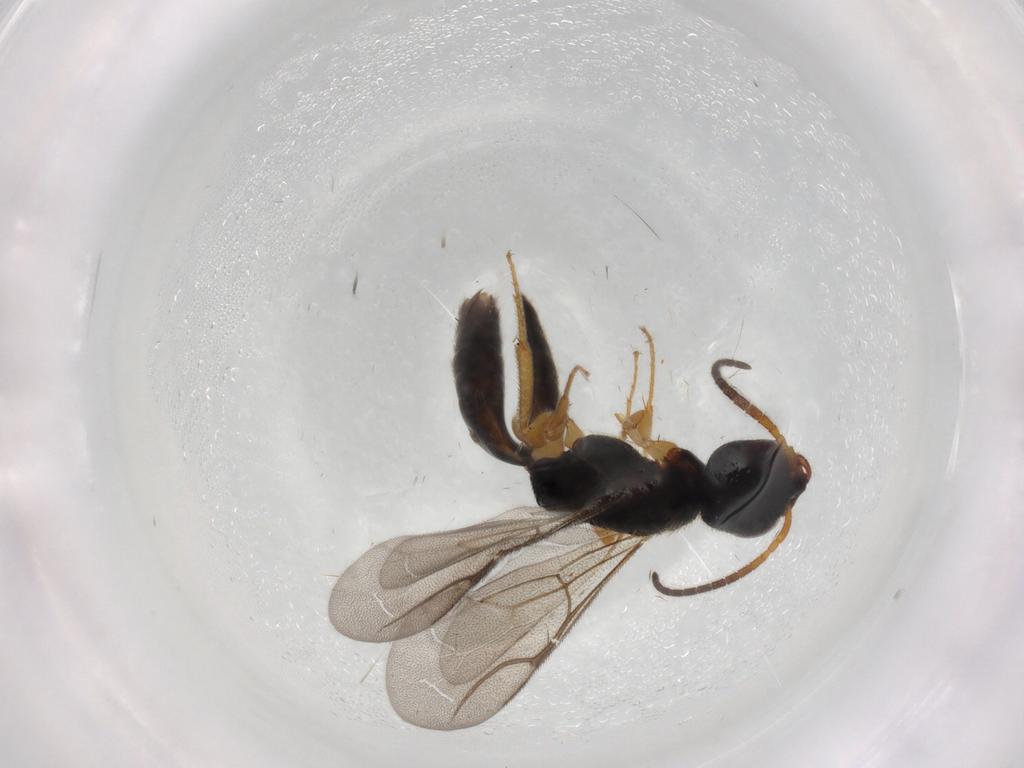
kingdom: Animalia
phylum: Arthropoda
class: Insecta
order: Hymenoptera
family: Bethylidae
